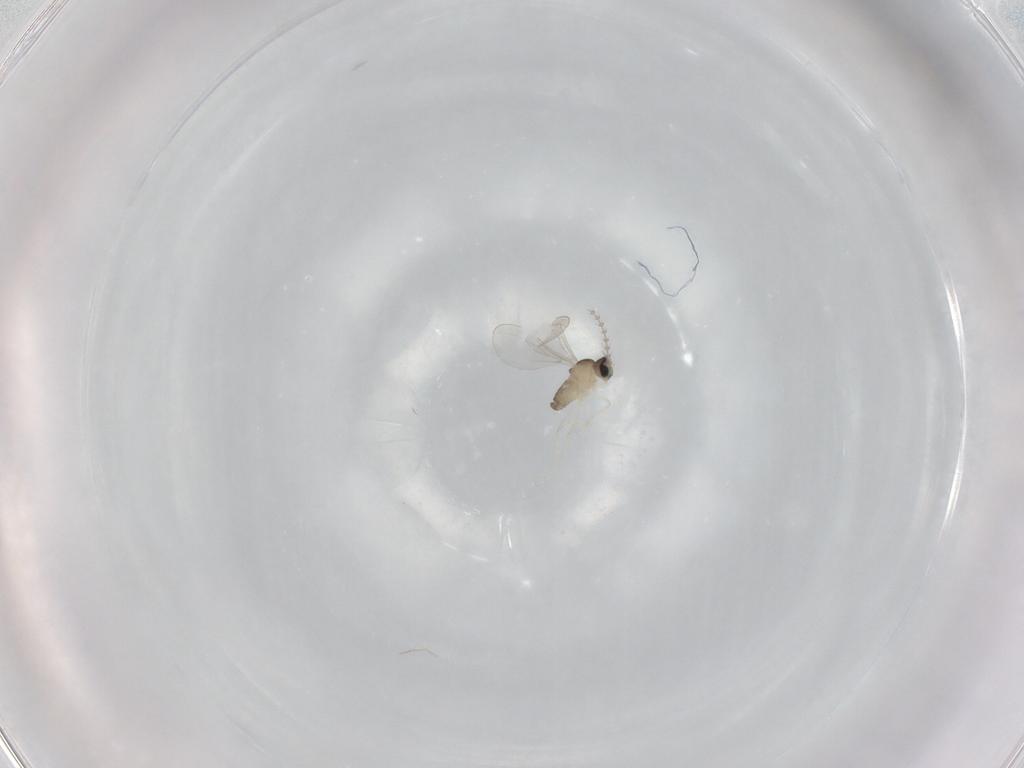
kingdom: Animalia
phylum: Arthropoda
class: Insecta
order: Diptera
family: Cecidomyiidae
